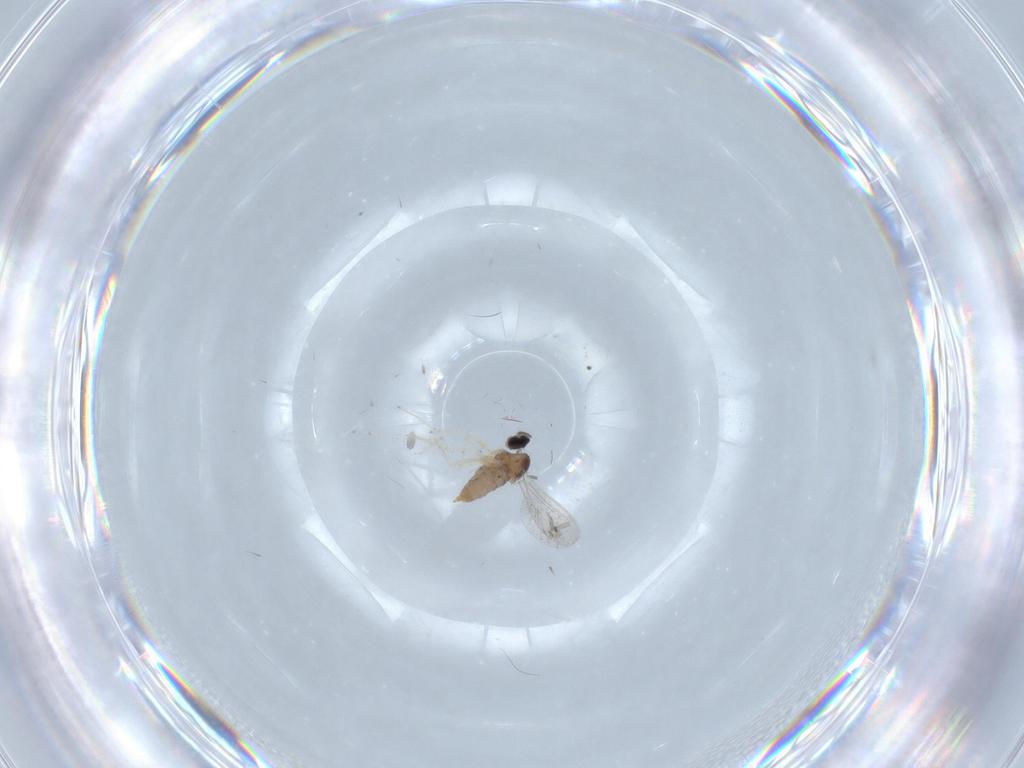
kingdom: Animalia
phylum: Arthropoda
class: Insecta
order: Diptera
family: Cecidomyiidae
